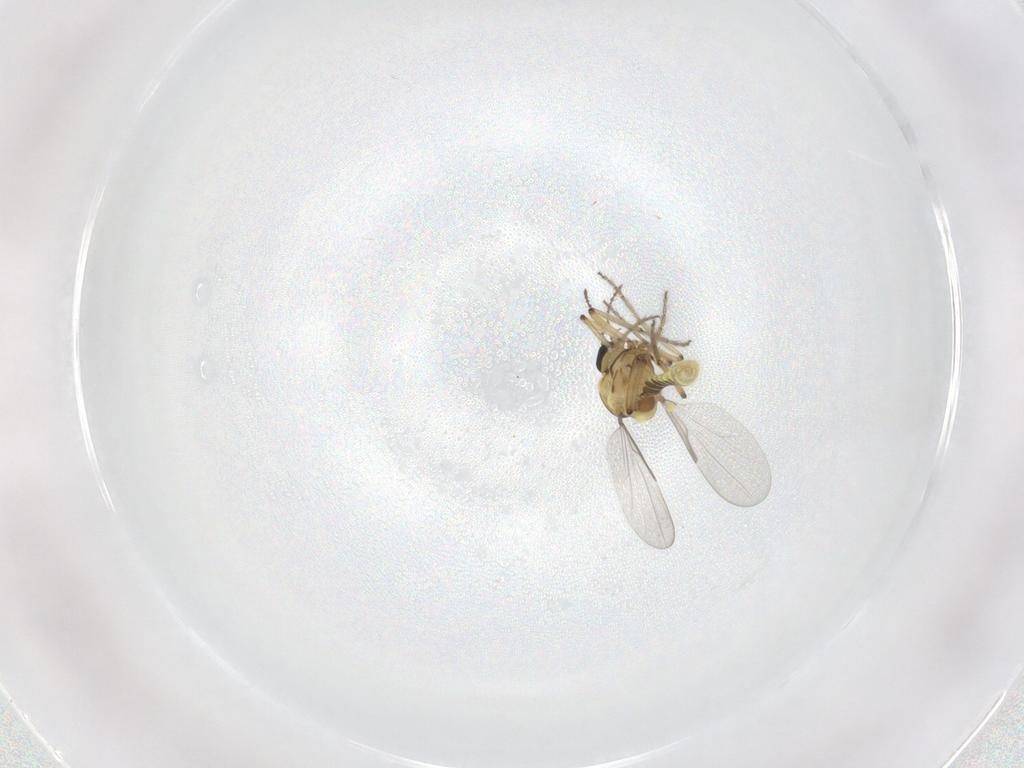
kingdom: Animalia
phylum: Arthropoda
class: Insecta
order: Diptera
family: Ceratopogonidae
